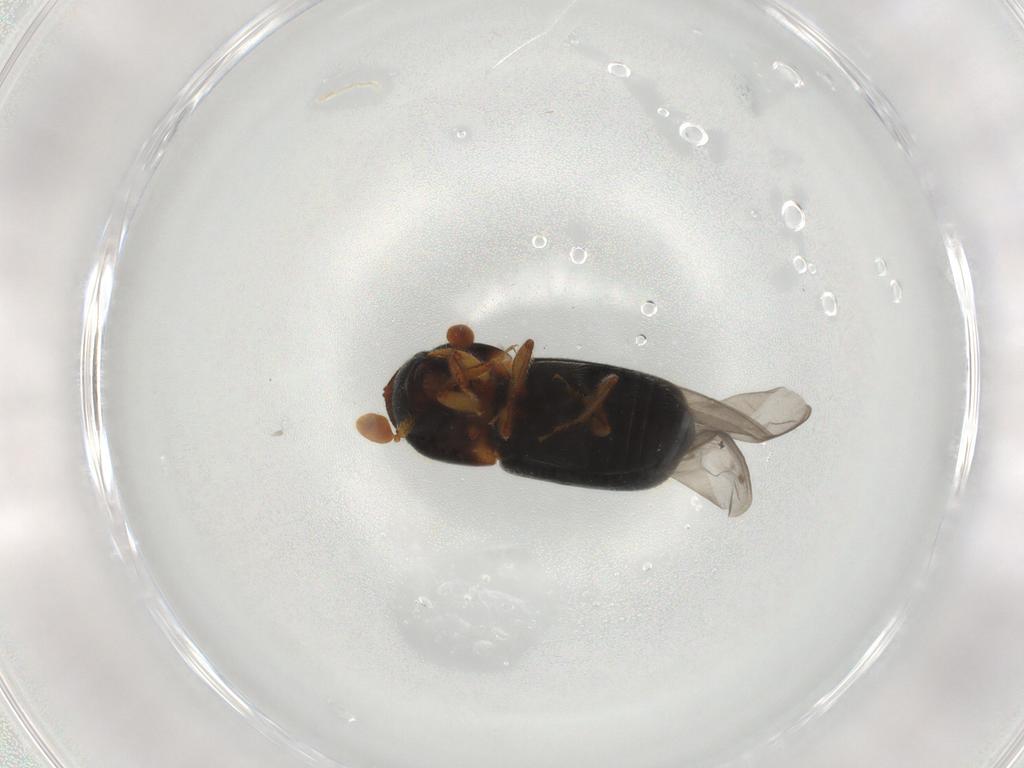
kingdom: Animalia
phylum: Arthropoda
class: Insecta
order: Coleoptera
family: Curculionidae
